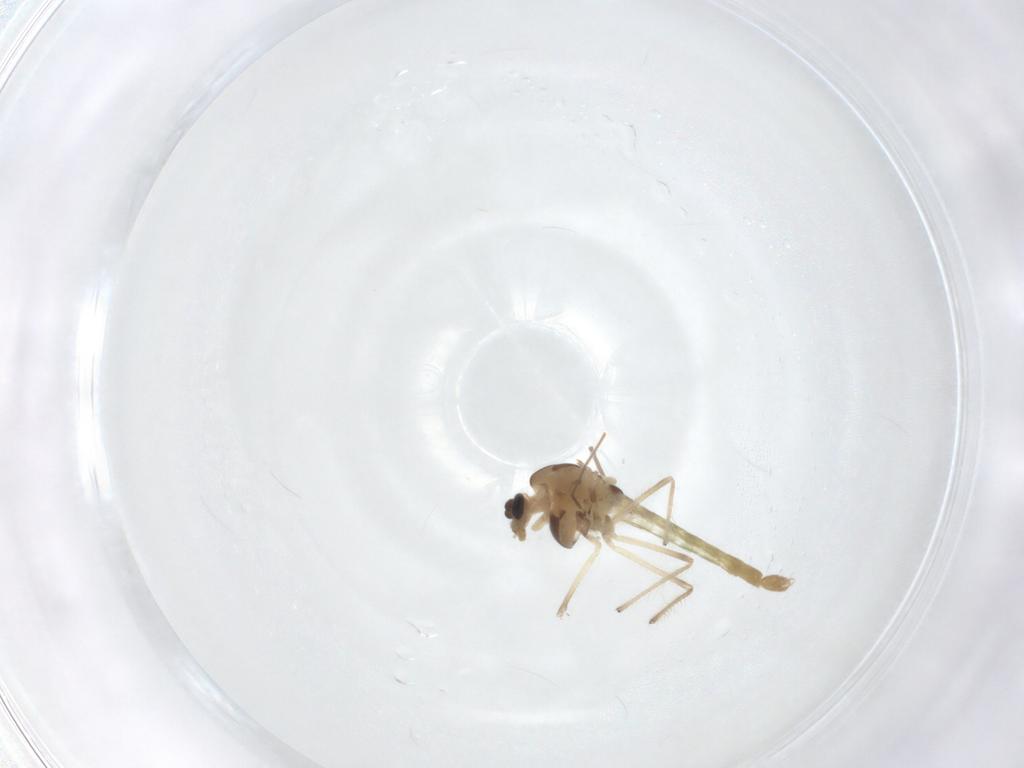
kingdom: Animalia
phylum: Arthropoda
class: Insecta
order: Diptera
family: Chironomidae
